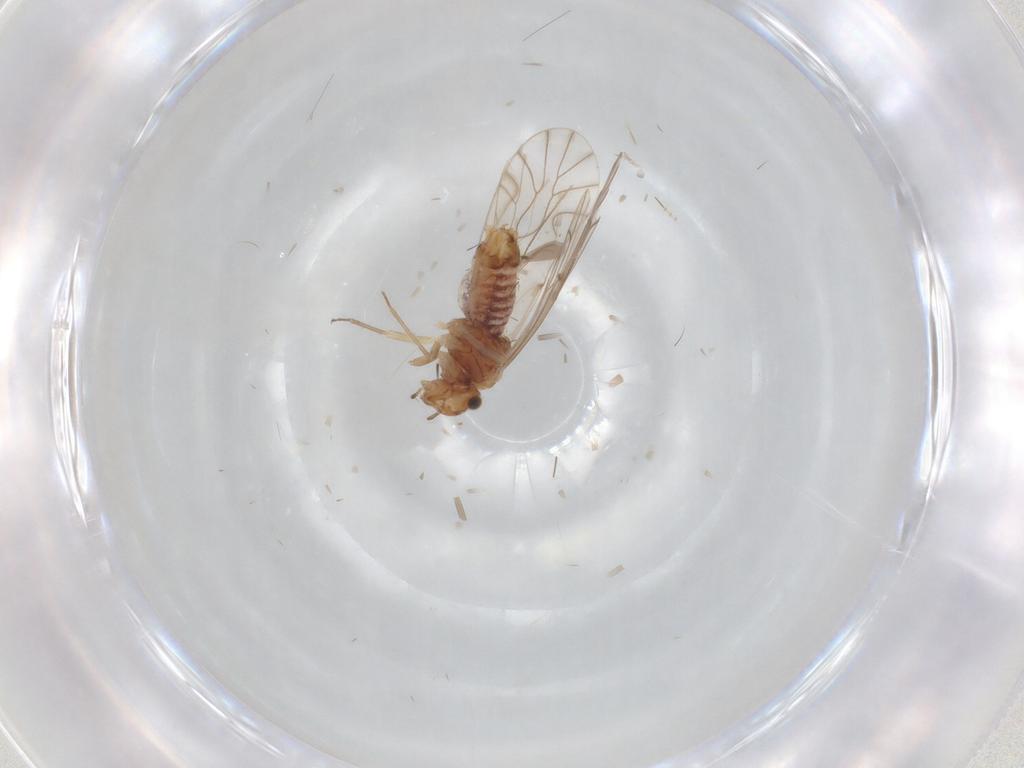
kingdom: Animalia
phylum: Arthropoda
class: Insecta
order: Psocodea
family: Lachesillidae
